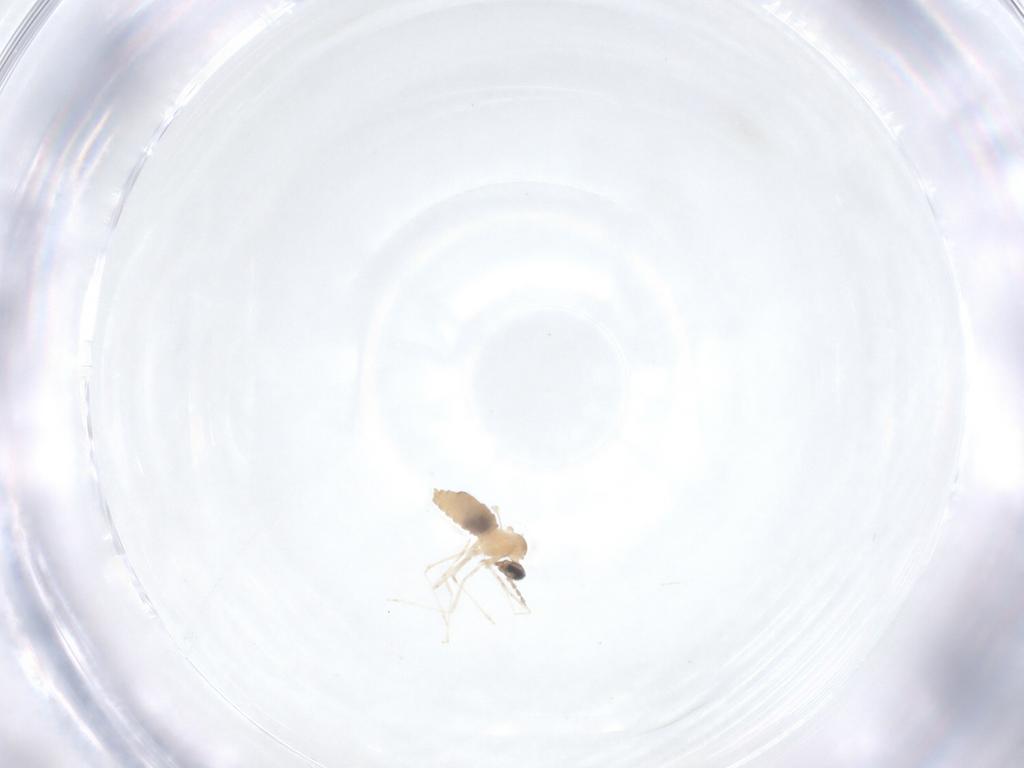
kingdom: Animalia
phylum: Arthropoda
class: Insecta
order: Diptera
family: Cecidomyiidae
